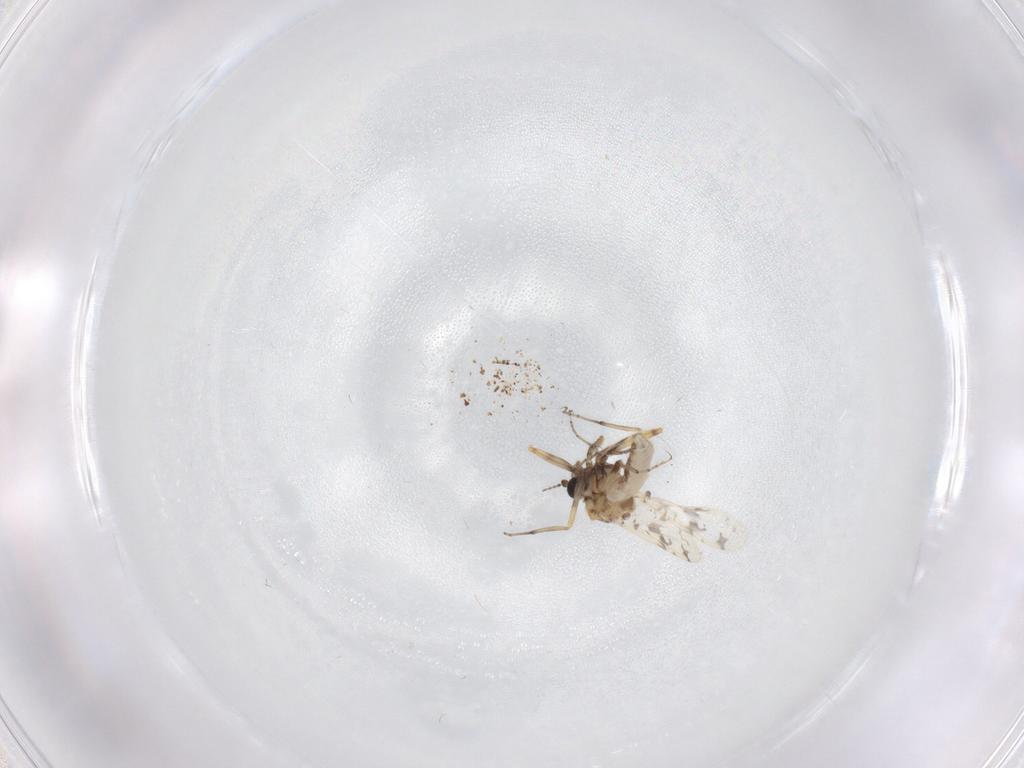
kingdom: Animalia
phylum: Arthropoda
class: Insecta
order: Diptera
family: Ceratopogonidae
